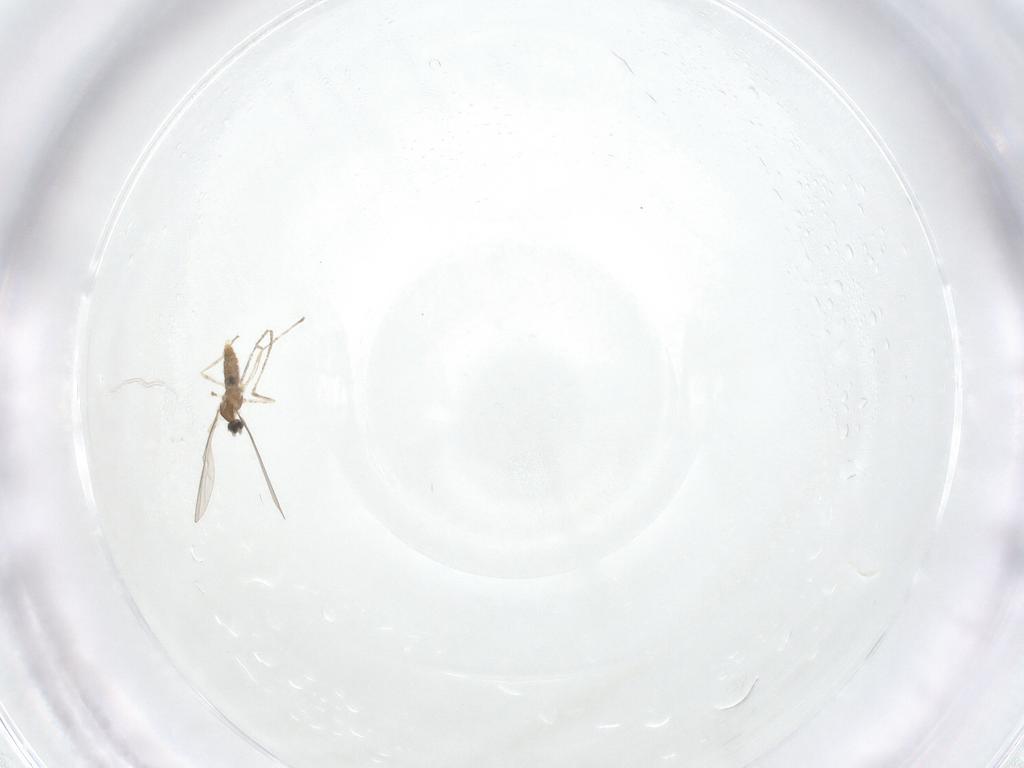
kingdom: Animalia
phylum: Arthropoda
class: Insecta
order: Diptera
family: Cecidomyiidae
